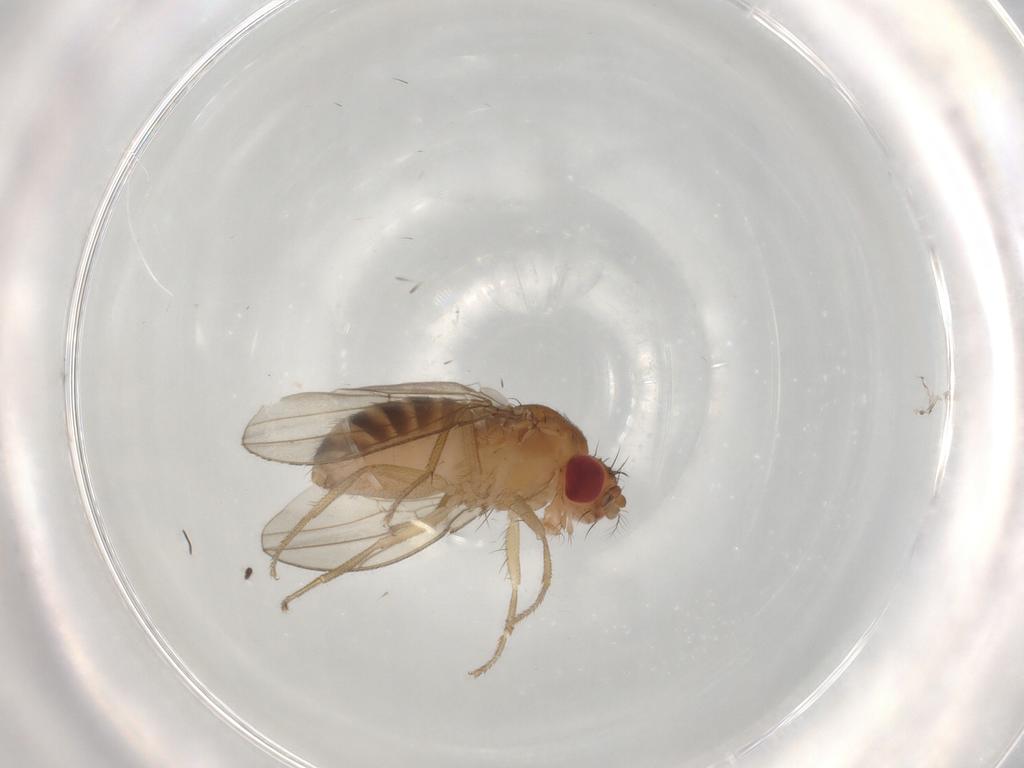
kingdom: Animalia
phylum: Arthropoda
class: Insecta
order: Diptera
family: Drosophilidae
